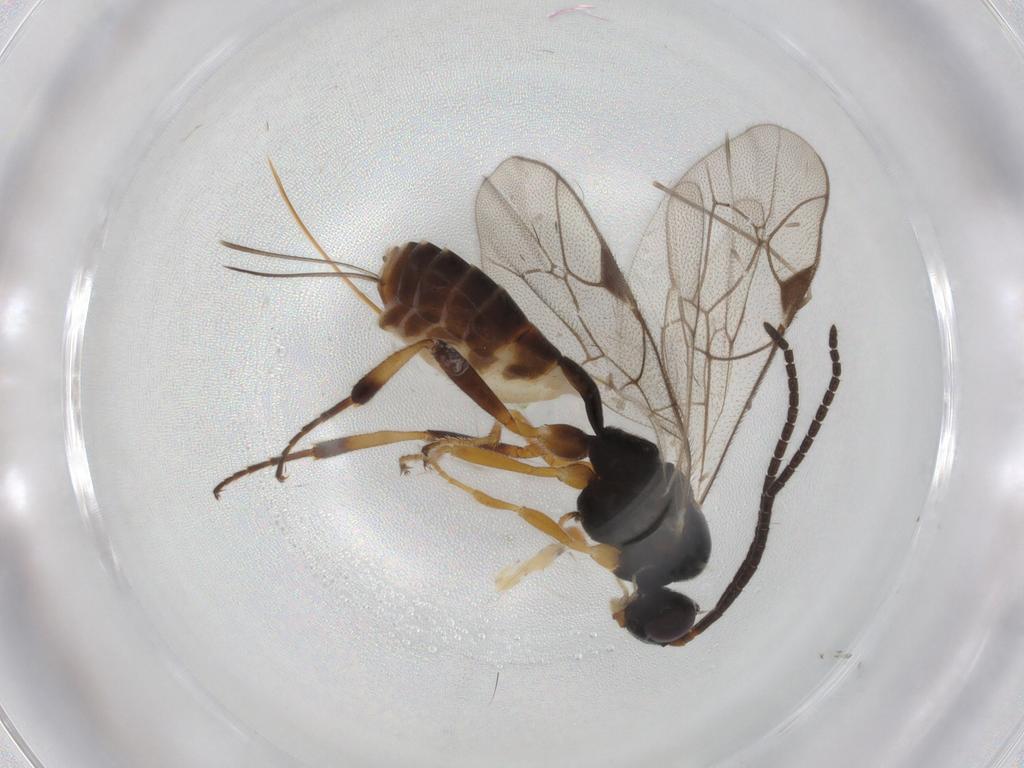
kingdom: Animalia
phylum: Arthropoda
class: Insecta
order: Hymenoptera
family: Ichneumonidae
